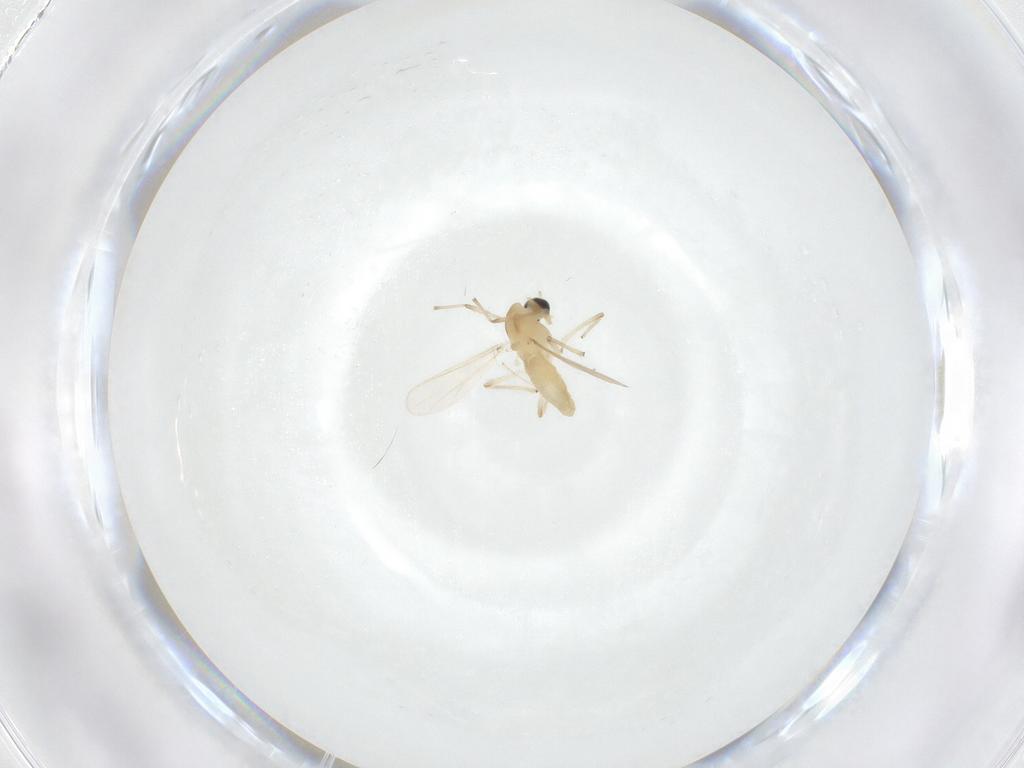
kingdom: Animalia
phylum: Arthropoda
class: Insecta
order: Diptera
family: Chironomidae
